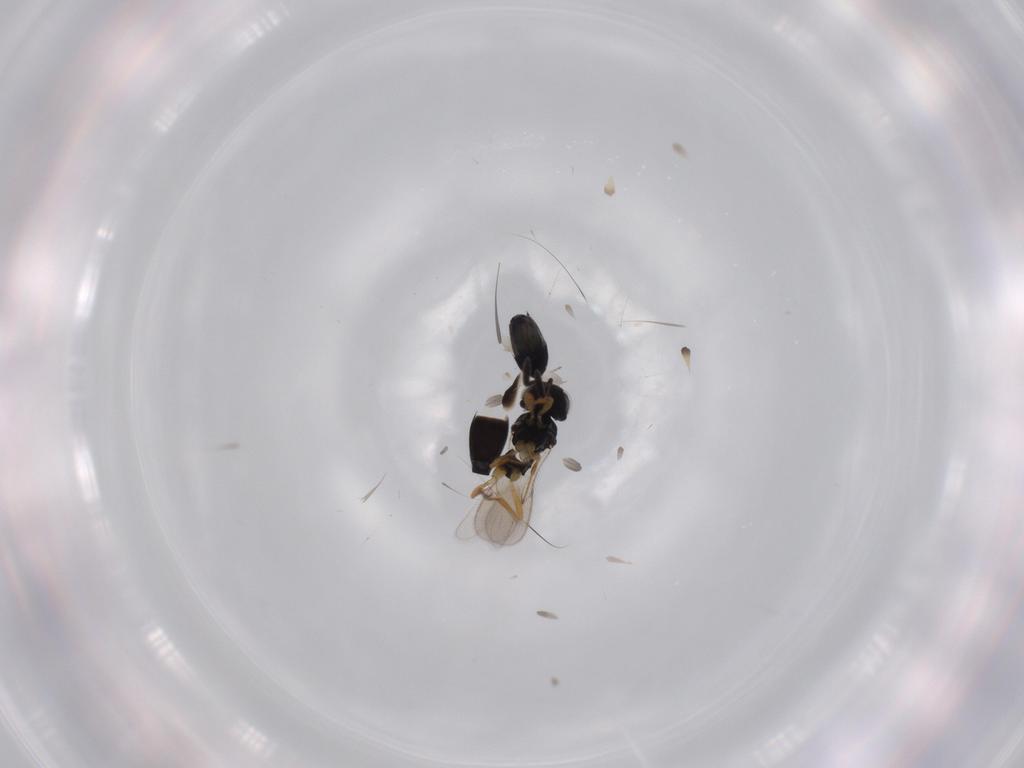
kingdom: Animalia
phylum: Arthropoda
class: Insecta
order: Hymenoptera
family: Scelionidae
